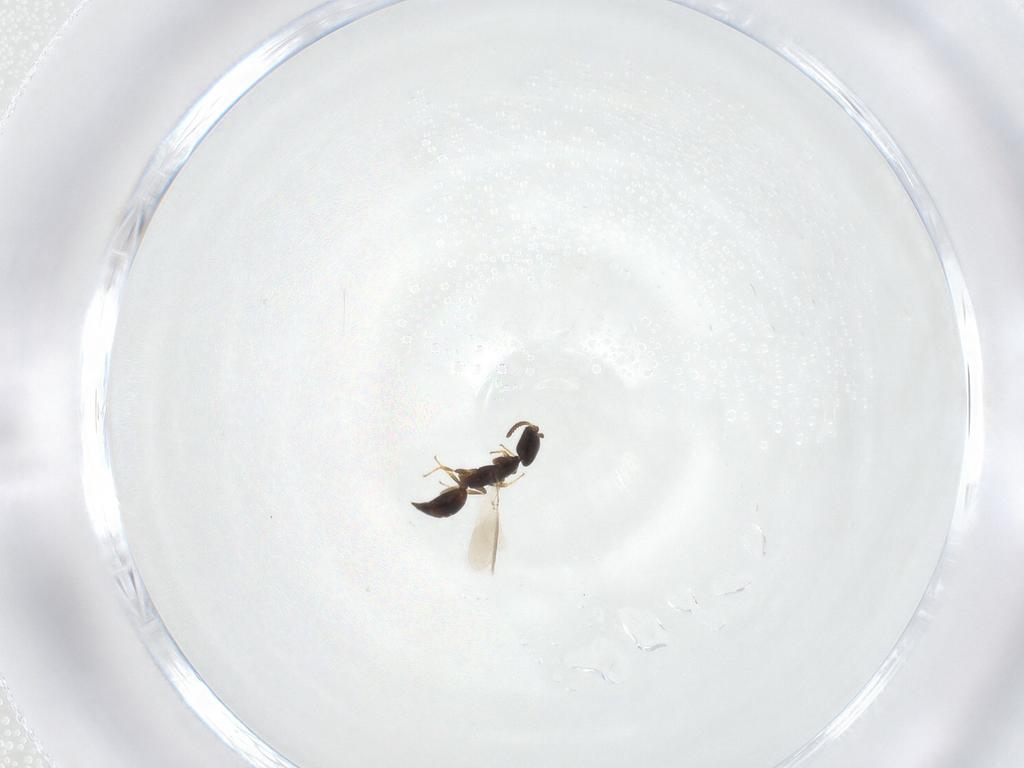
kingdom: Animalia
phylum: Arthropoda
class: Insecta
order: Hymenoptera
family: Bethylidae
